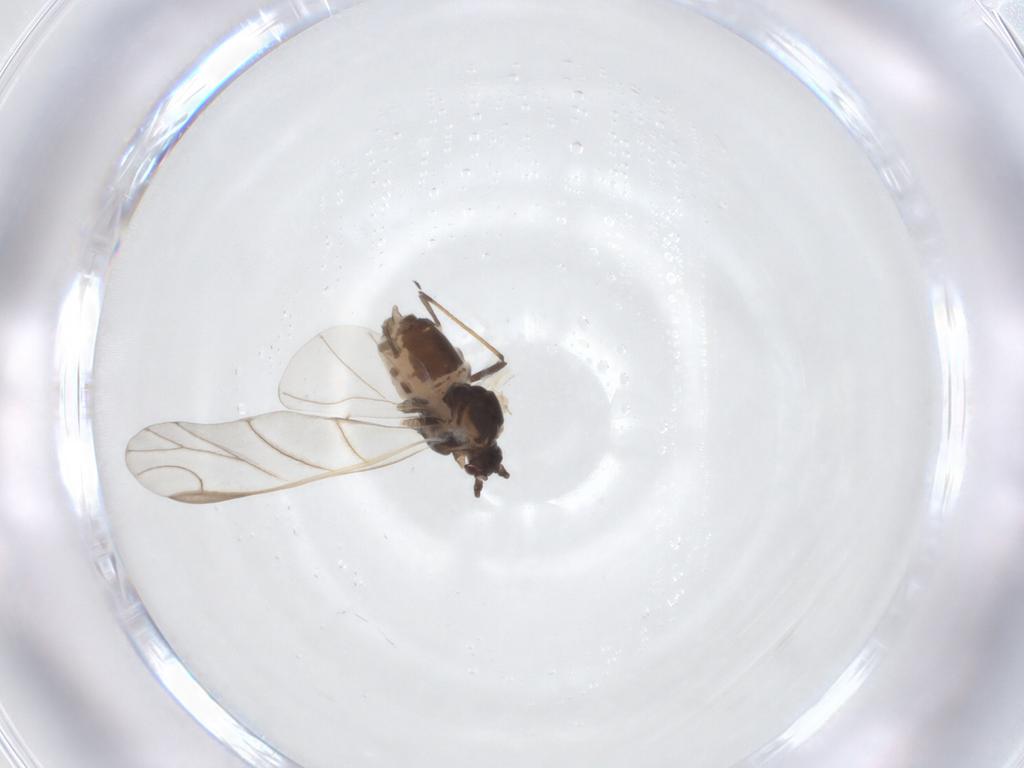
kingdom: Animalia
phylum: Arthropoda
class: Insecta
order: Hemiptera
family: Aphididae
